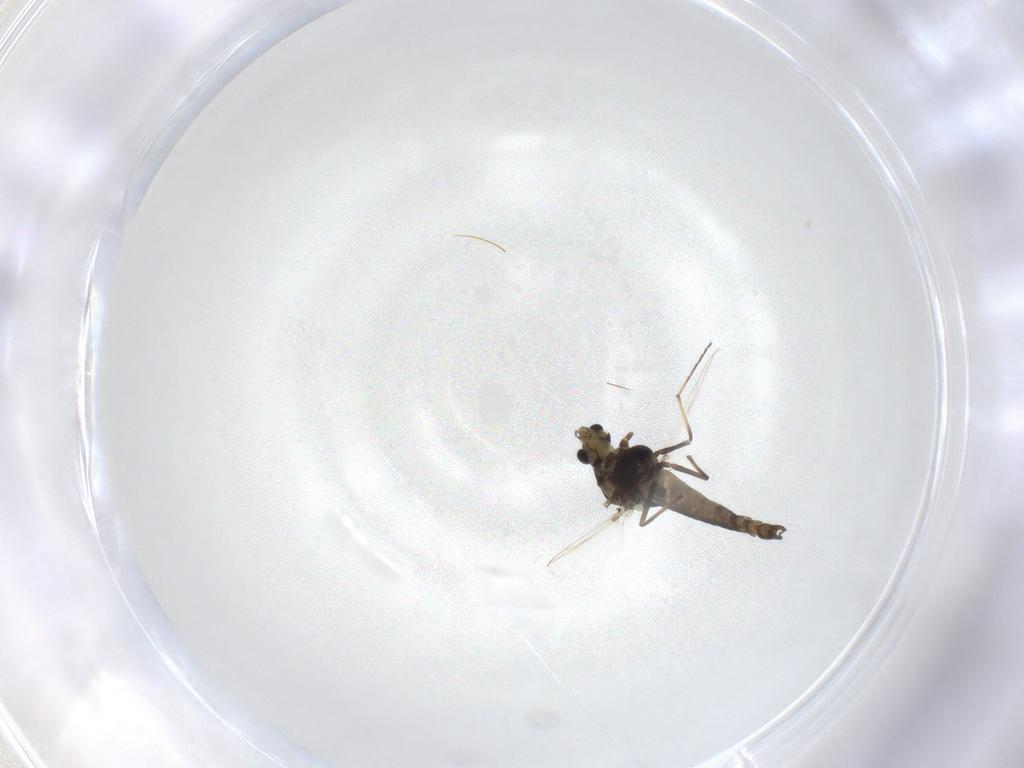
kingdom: Animalia
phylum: Arthropoda
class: Insecta
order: Diptera
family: Chironomidae
